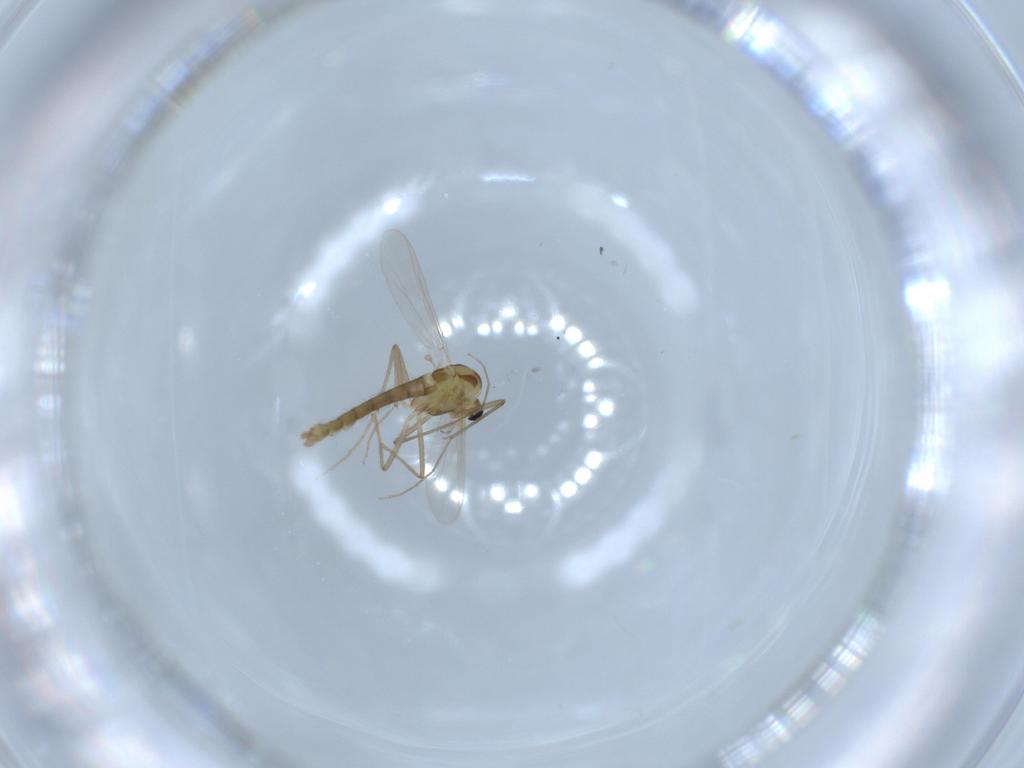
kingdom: Animalia
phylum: Arthropoda
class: Insecta
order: Diptera
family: Chironomidae
